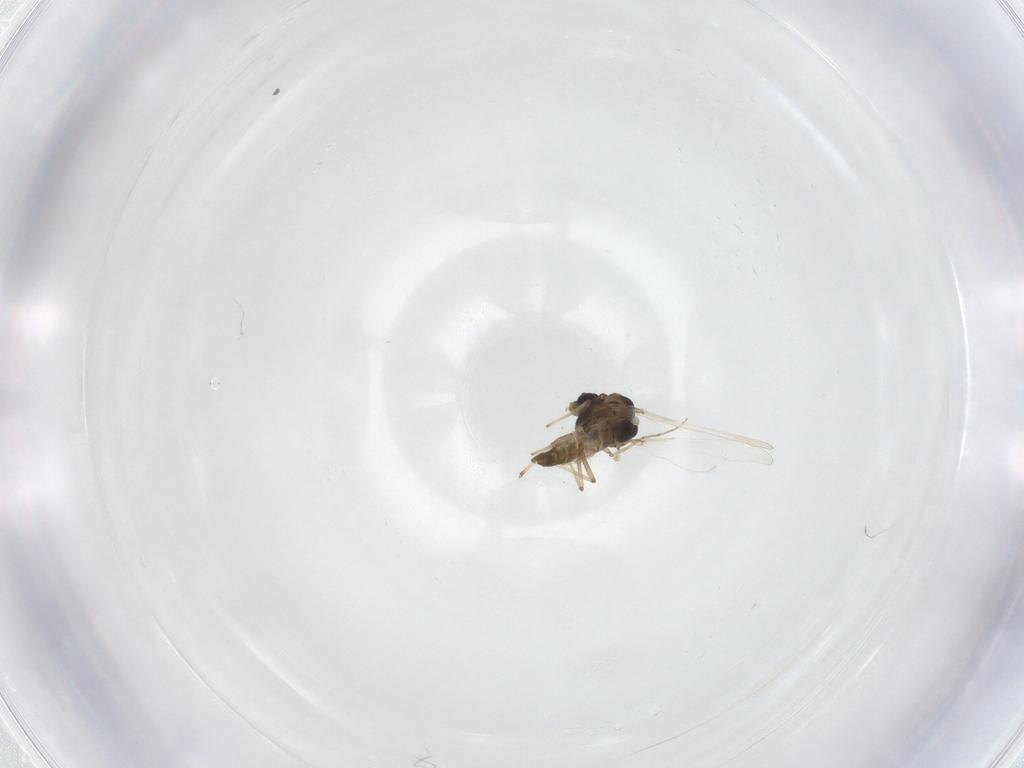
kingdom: Animalia
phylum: Arthropoda
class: Insecta
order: Diptera
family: Chironomidae
